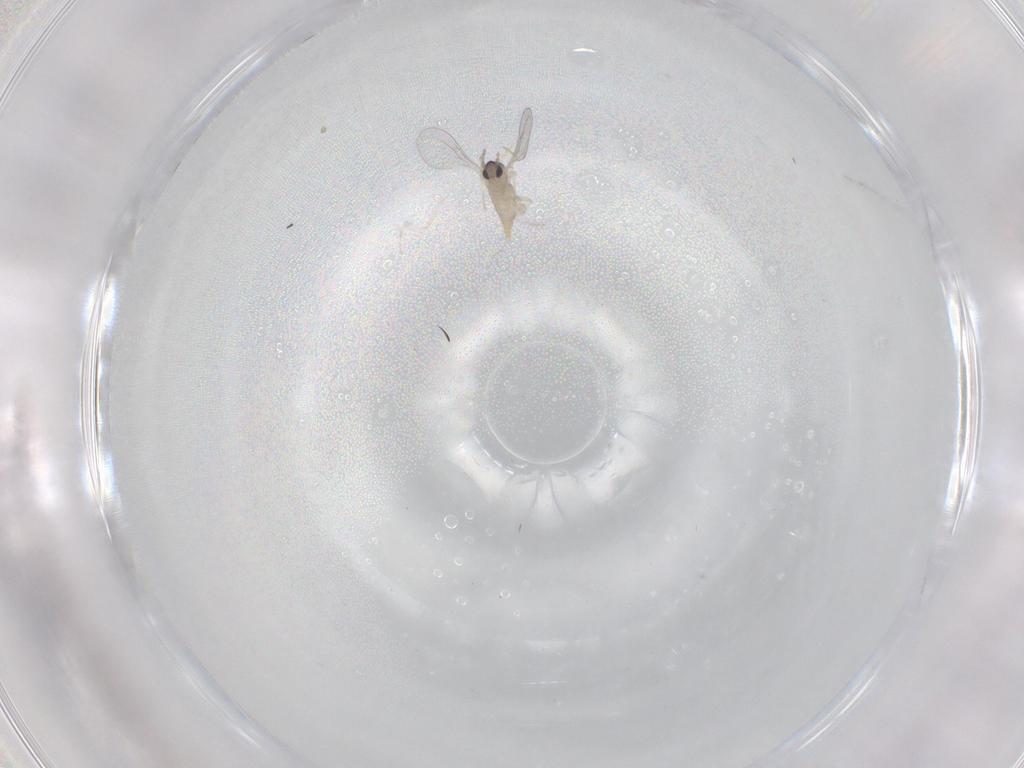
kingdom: Animalia
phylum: Arthropoda
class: Insecta
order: Diptera
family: Cecidomyiidae
